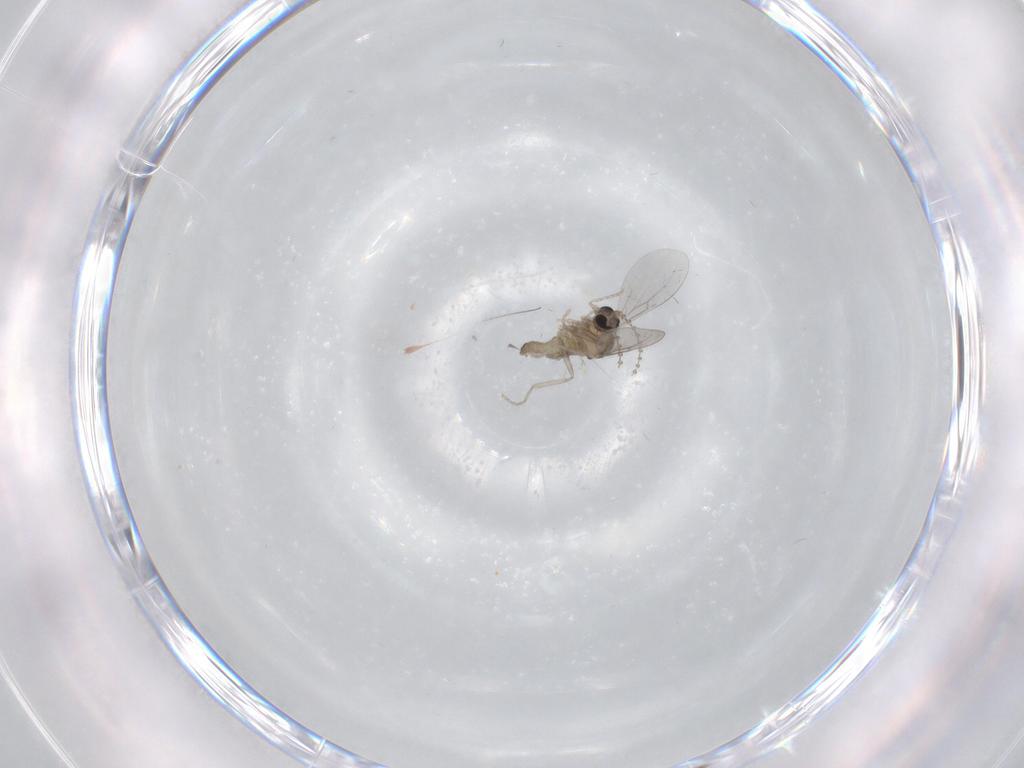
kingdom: Animalia
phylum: Arthropoda
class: Insecta
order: Diptera
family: Cecidomyiidae
